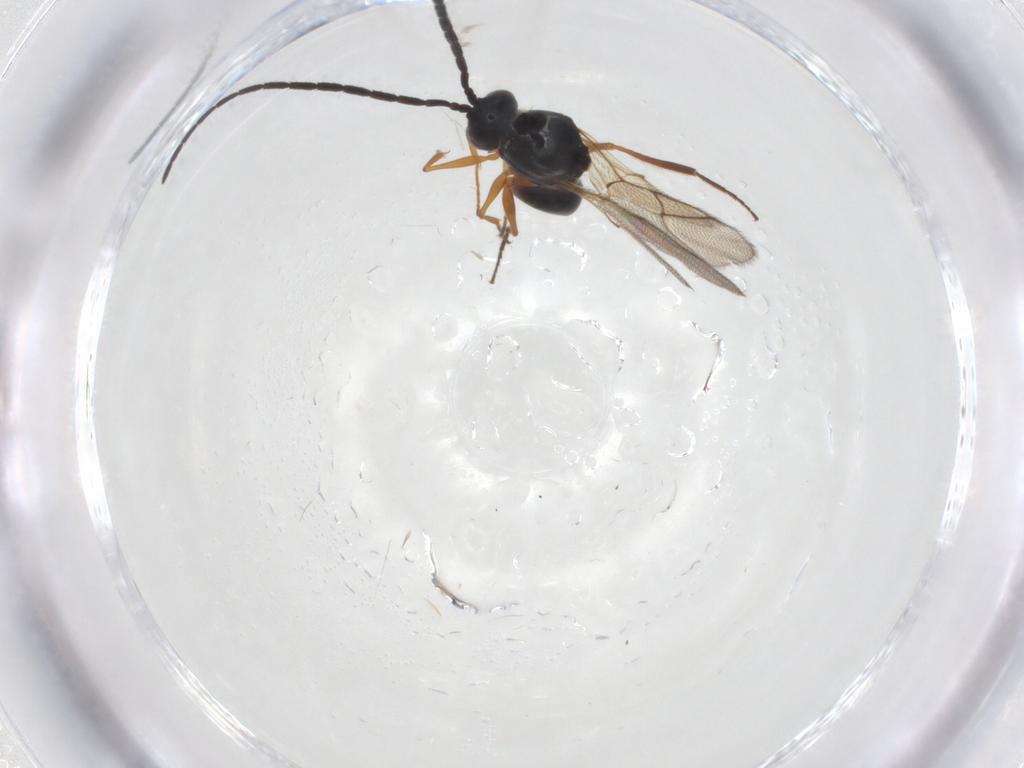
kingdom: Animalia
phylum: Arthropoda
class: Insecta
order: Hymenoptera
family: Figitidae
